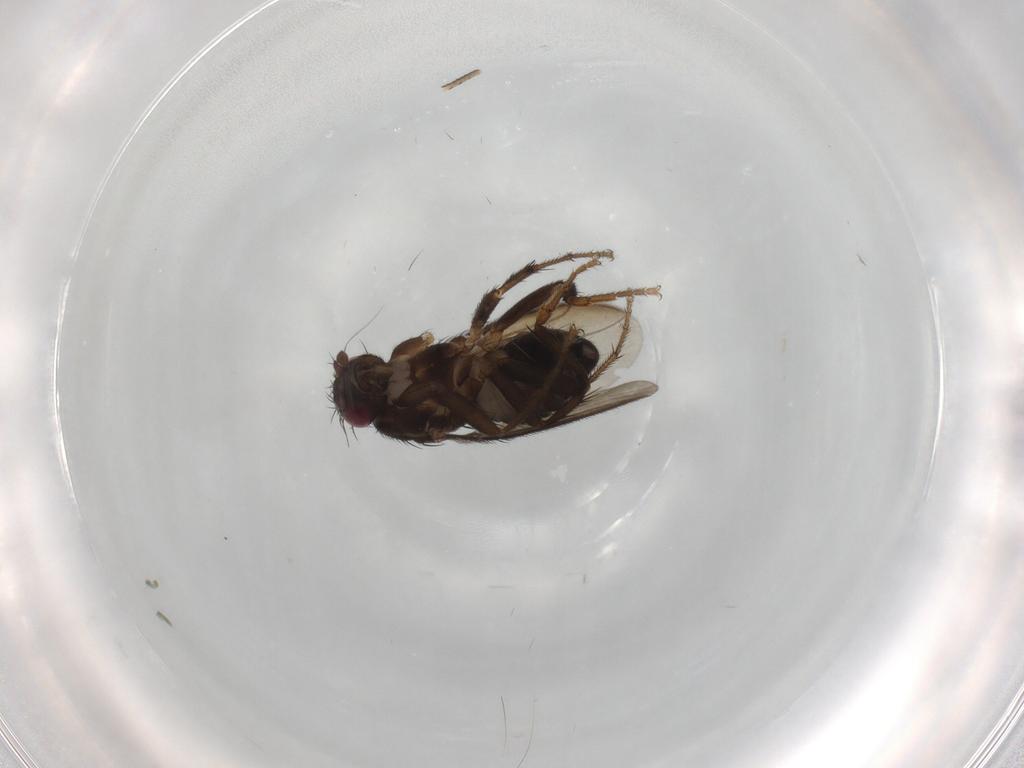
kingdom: Animalia
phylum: Arthropoda
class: Insecta
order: Diptera
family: Sphaeroceridae
